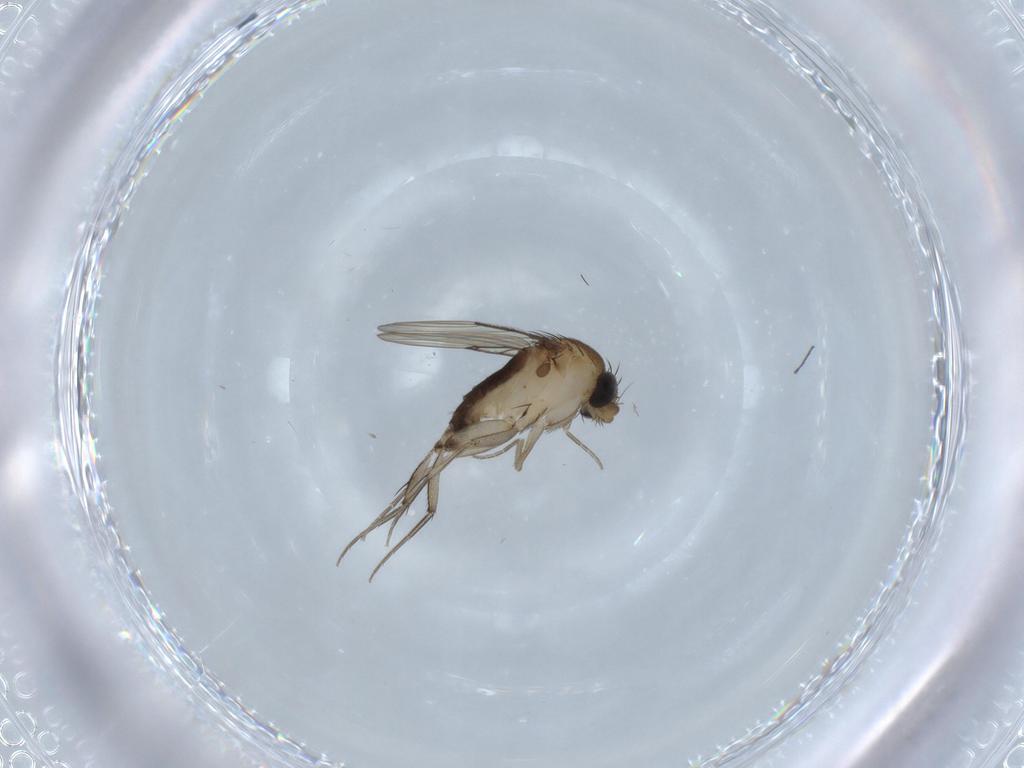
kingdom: Animalia
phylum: Arthropoda
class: Insecta
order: Diptera
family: Phoridae
